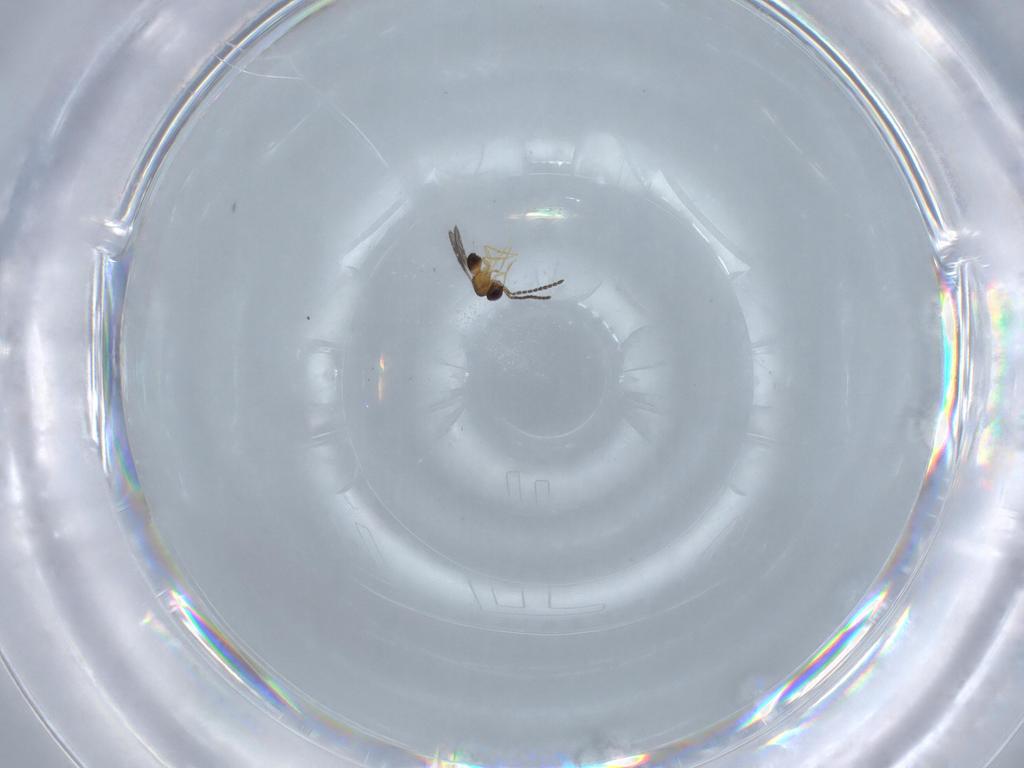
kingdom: Animalia
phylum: Arthropoda
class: Insecta
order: Hymenoptera
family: Ceraphronidae
